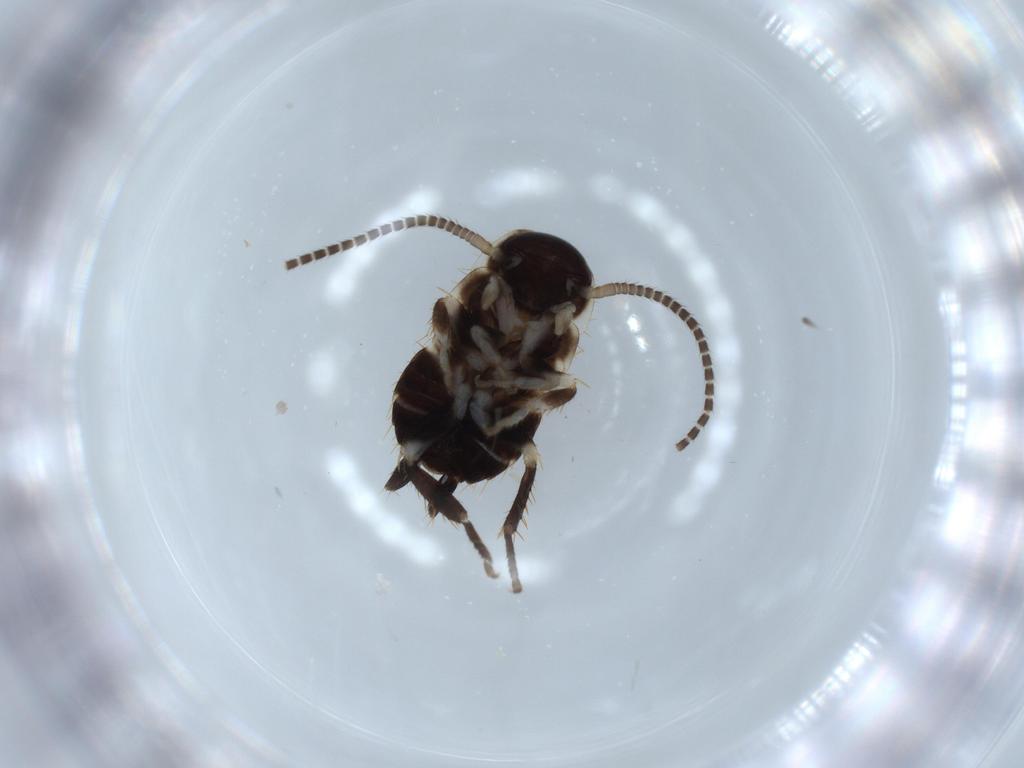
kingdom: Animalia
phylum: Arthropoda
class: Insecta
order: Blattodea
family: Ectobiidae
